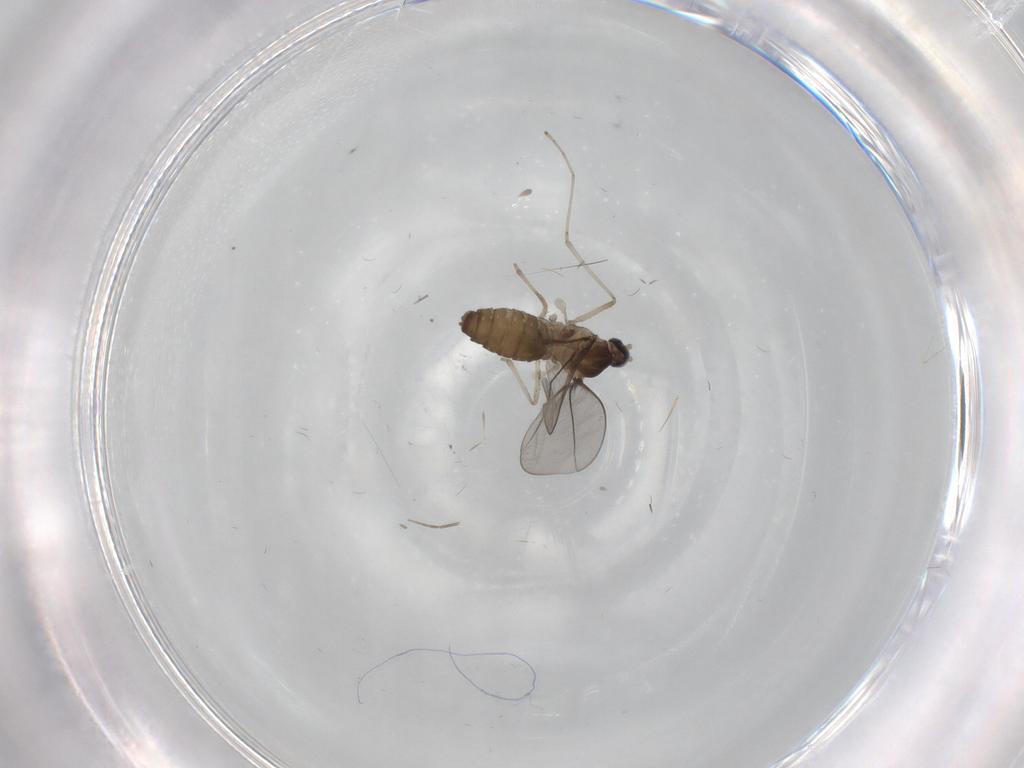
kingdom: Animalia
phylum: Arthropoda
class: Insecta
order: Diptera
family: Cecidomyiidae
